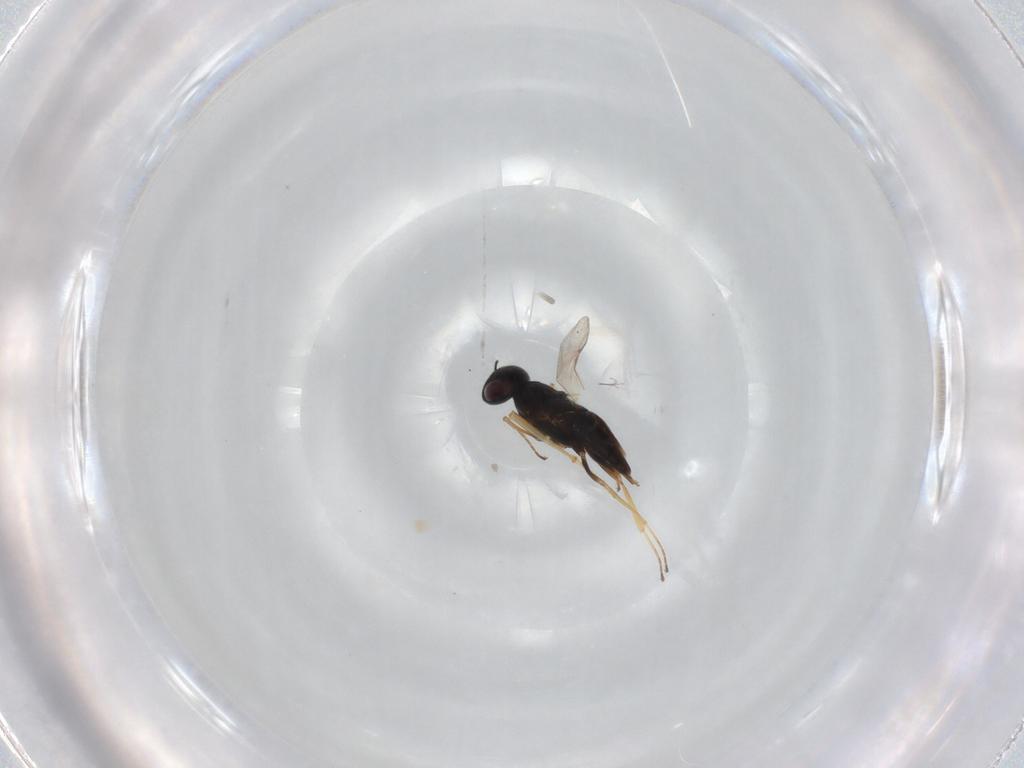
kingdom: Animalia
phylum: Arthropoda
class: Insecta
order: Diptera
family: Glossinidae
